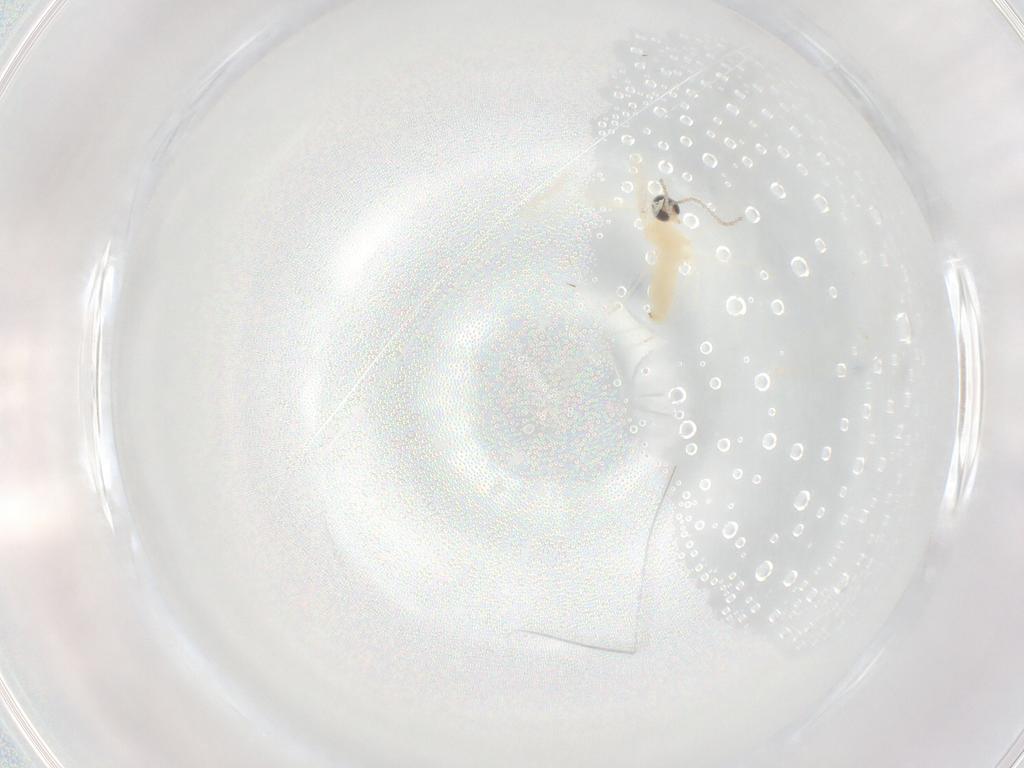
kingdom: Animalia
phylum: Arthropoda
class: Insecta
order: Diptera
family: Cecidomyiidae
